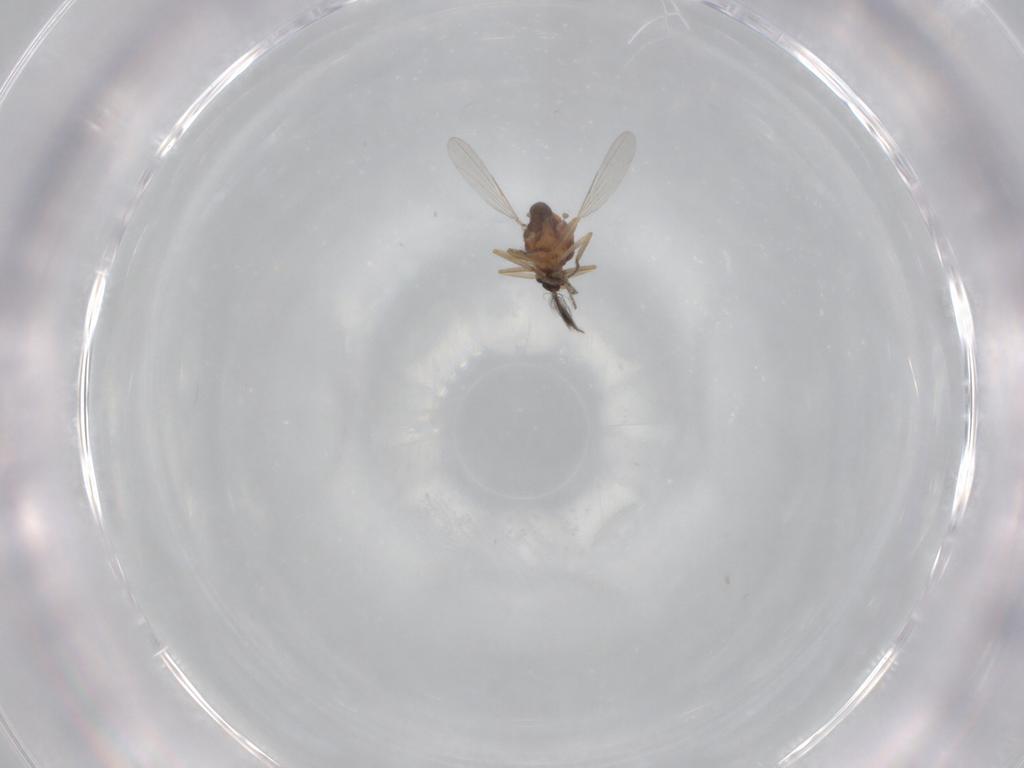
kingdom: Animalia
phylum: Arthropoda
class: Insecta
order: Diptera
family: Ceratopogonidae
